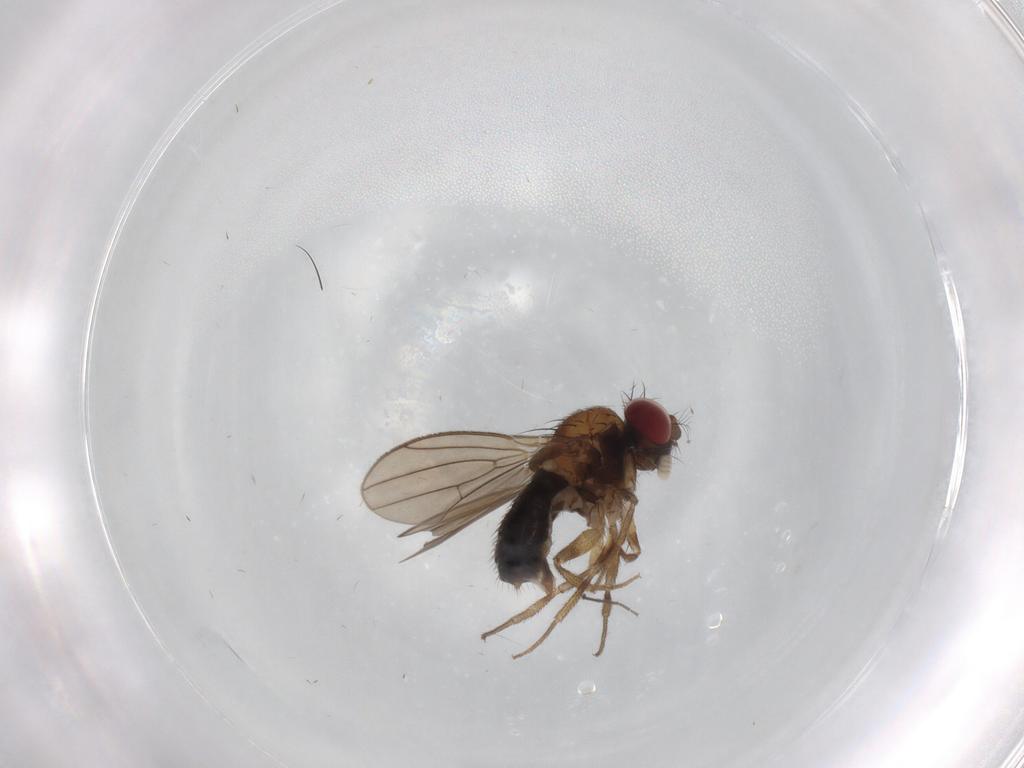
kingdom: Animalia
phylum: Arthropoda
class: Insecta
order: Diptera
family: Drosophilidae
